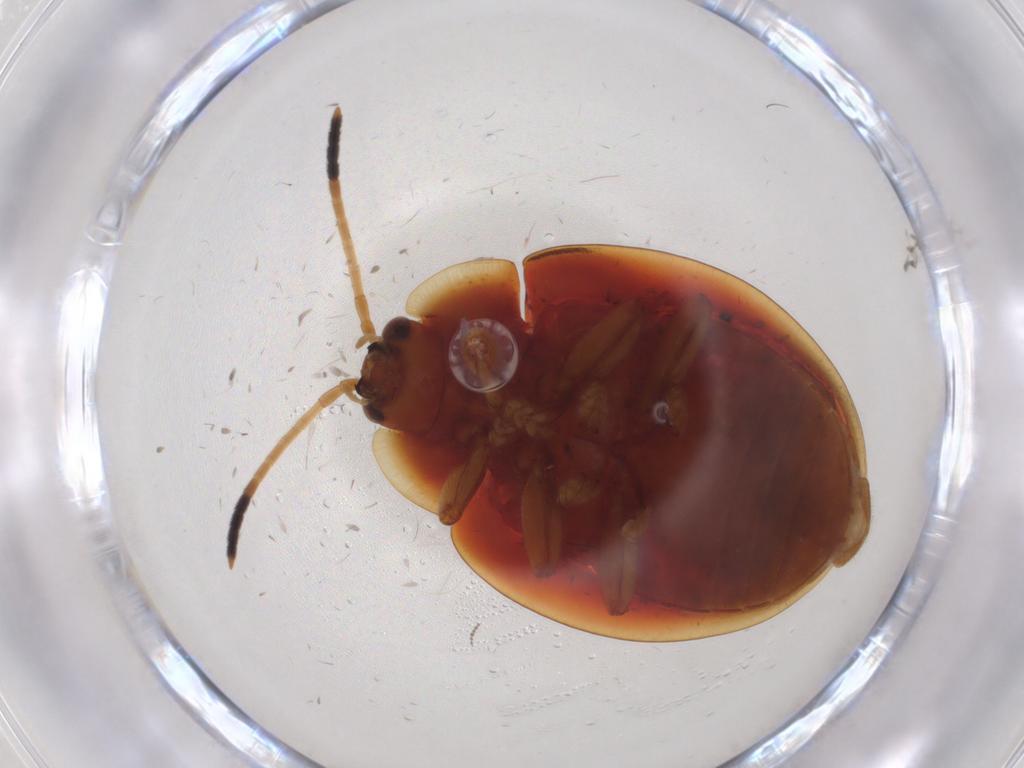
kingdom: Animalia
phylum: Arthropoda
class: Insecta
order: Coleoptera
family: Chrysomelidae
